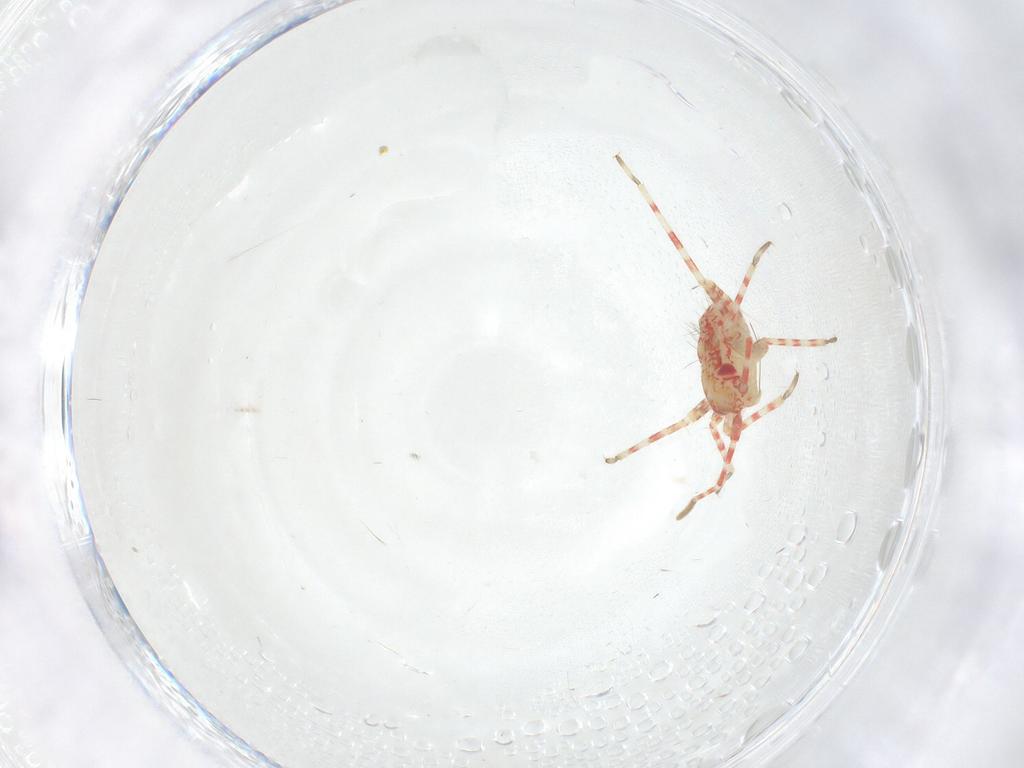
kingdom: Animalia
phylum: Arthropoda
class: Insecta
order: Hemiptera
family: Miridae
